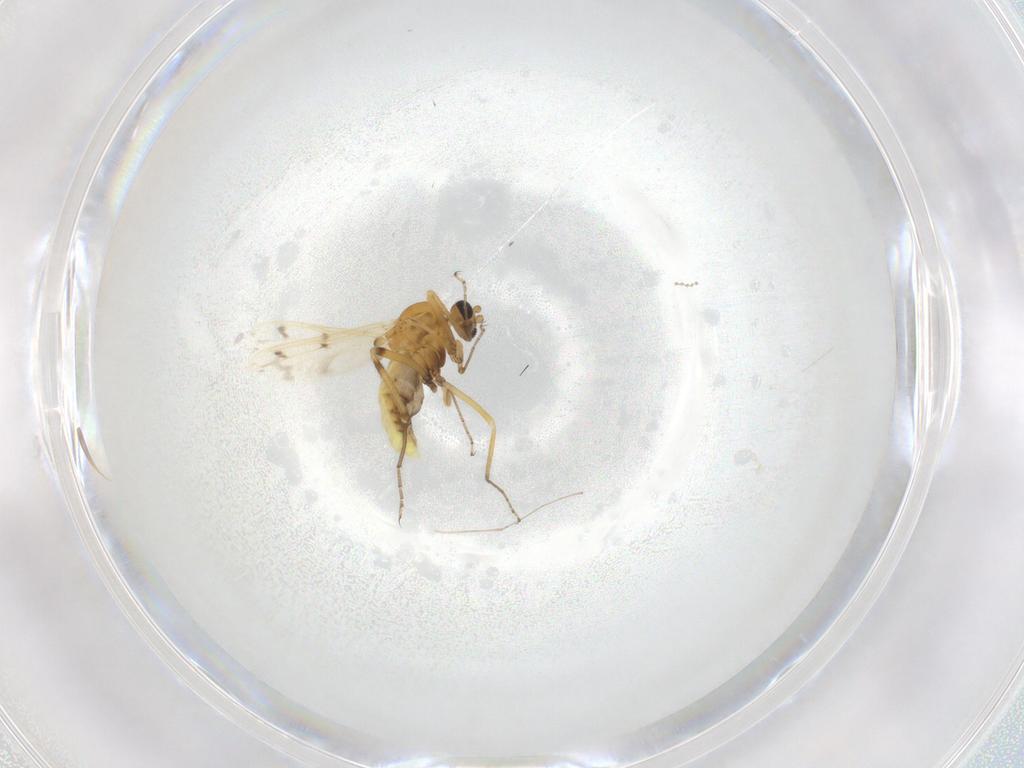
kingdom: Animalia
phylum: Arthropoda
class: Insecta
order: Diptera
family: Ceratopogonidae
